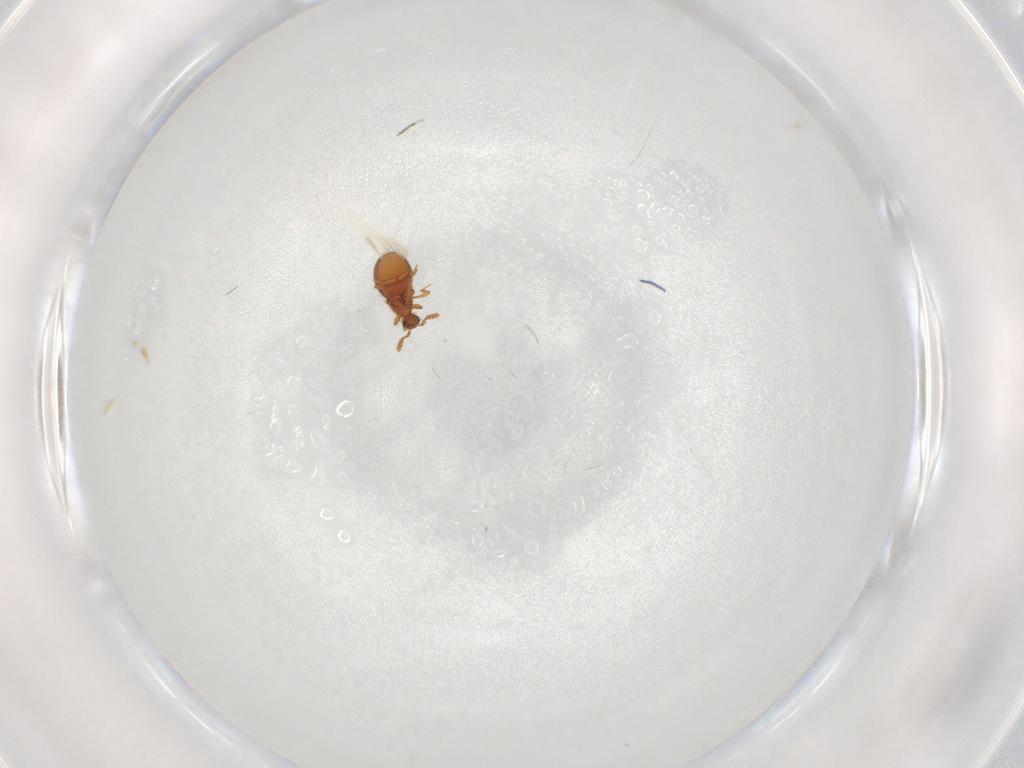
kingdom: Animalia
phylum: Arthropoda
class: Insecta
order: Coleoptera
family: Staphylinidae
